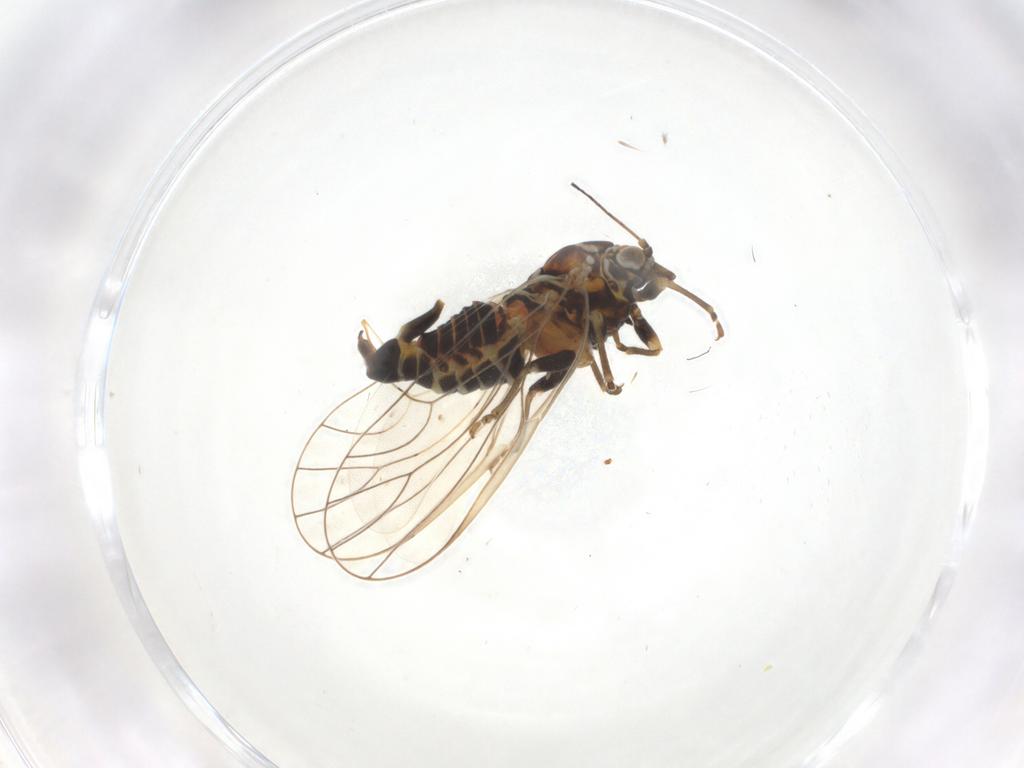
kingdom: Animalia
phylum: Arthropoda
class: Insecta
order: Hemiptera
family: Psyllidae
